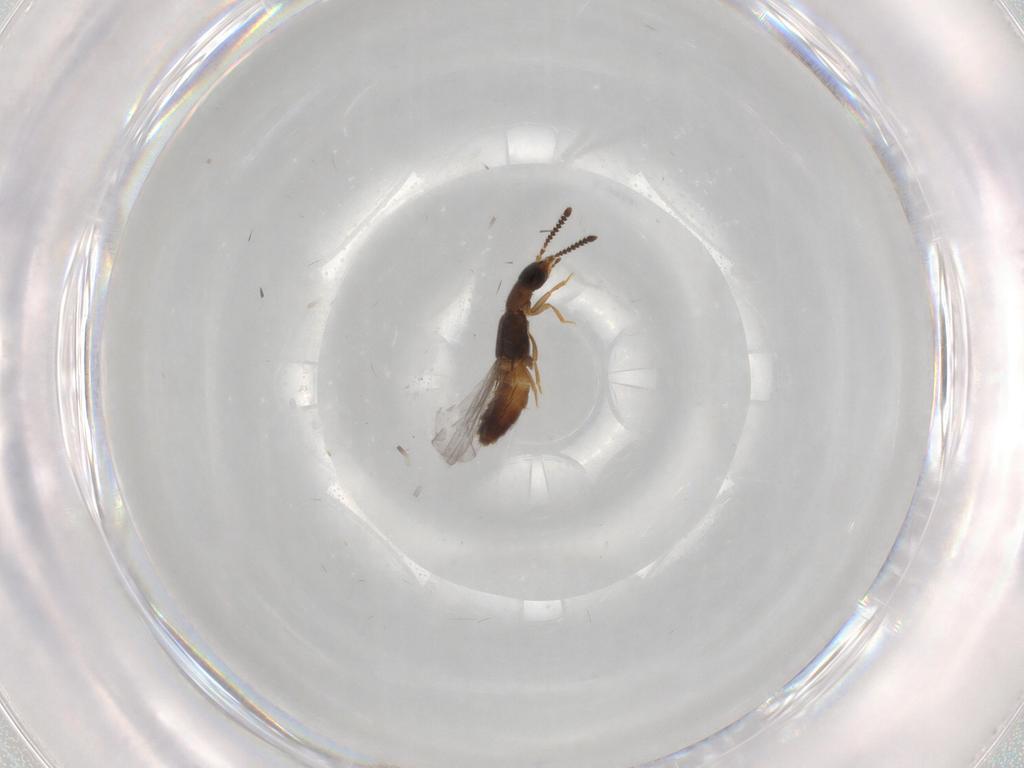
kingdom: Animalia
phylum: Arthropoda
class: Insecta
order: Coleoptera
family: Staphylinidae
